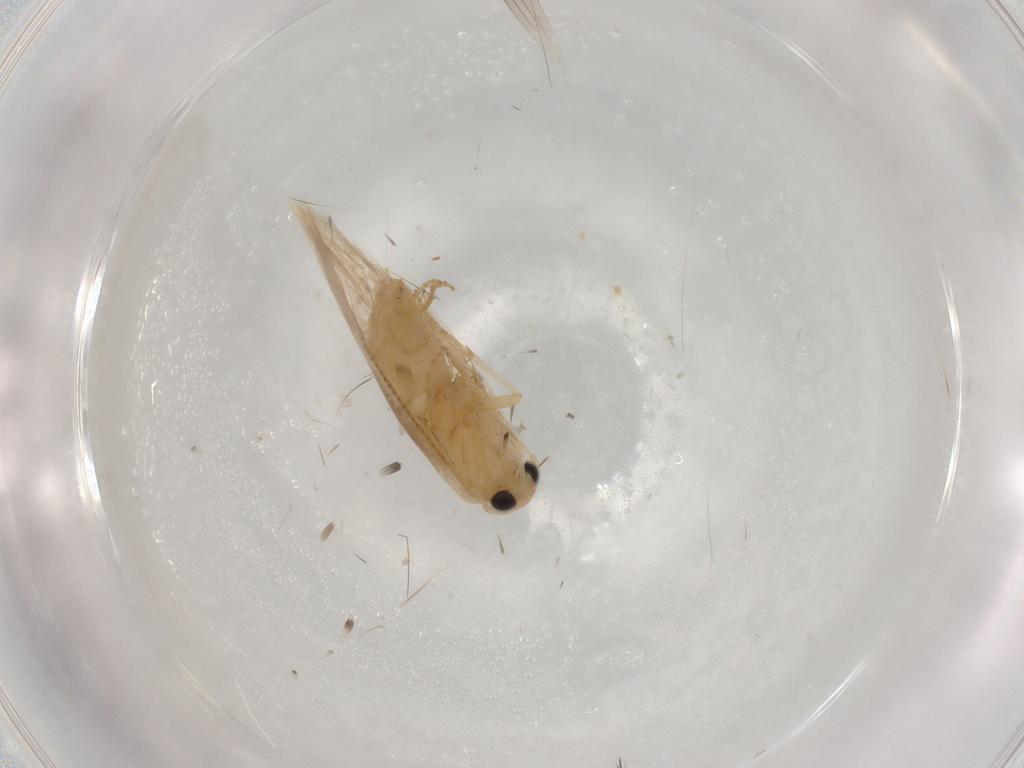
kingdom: Animalia
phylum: Arthropoda
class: Insecta
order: Lepidoptera
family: Bucculatricidae
